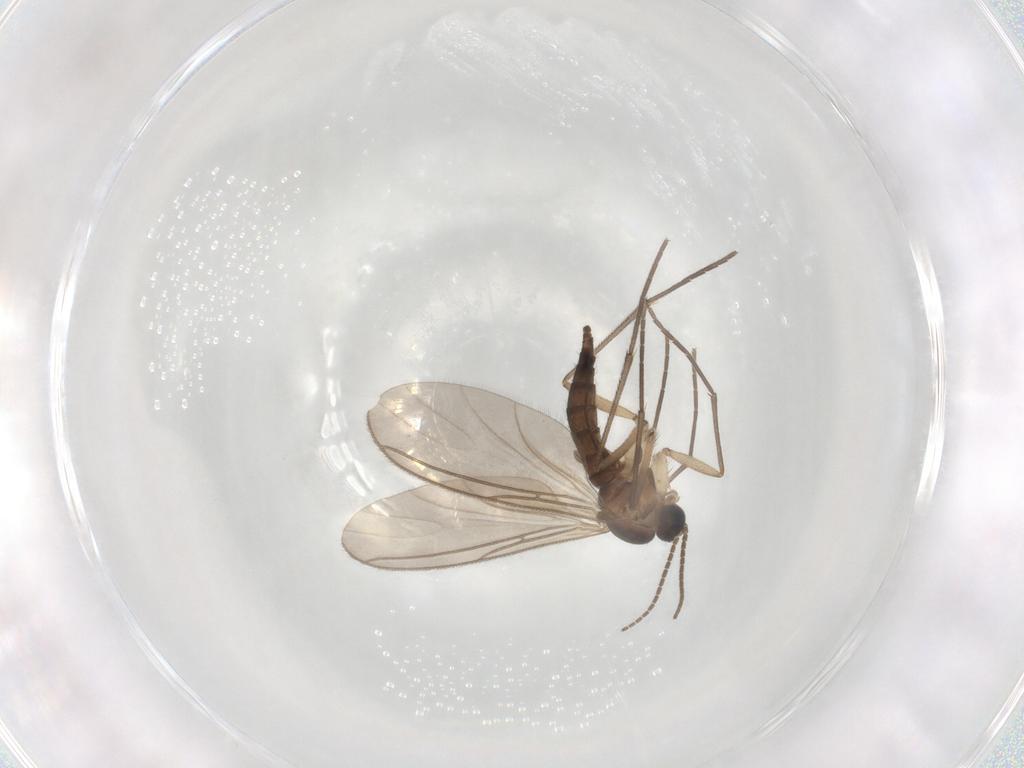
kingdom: Animalia
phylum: Arthropoda
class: Insecta
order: Diptera
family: Sciaridae
